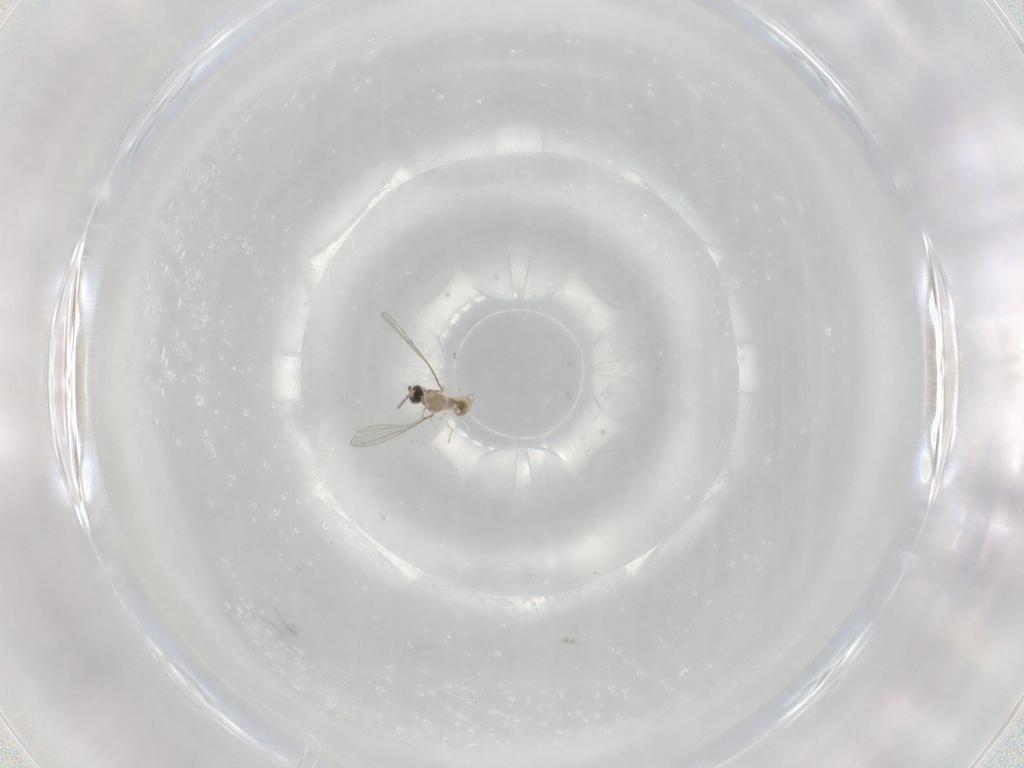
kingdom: Animalia
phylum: Arthropoda
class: Insecta
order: Diptera
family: Cecidomyiidae
